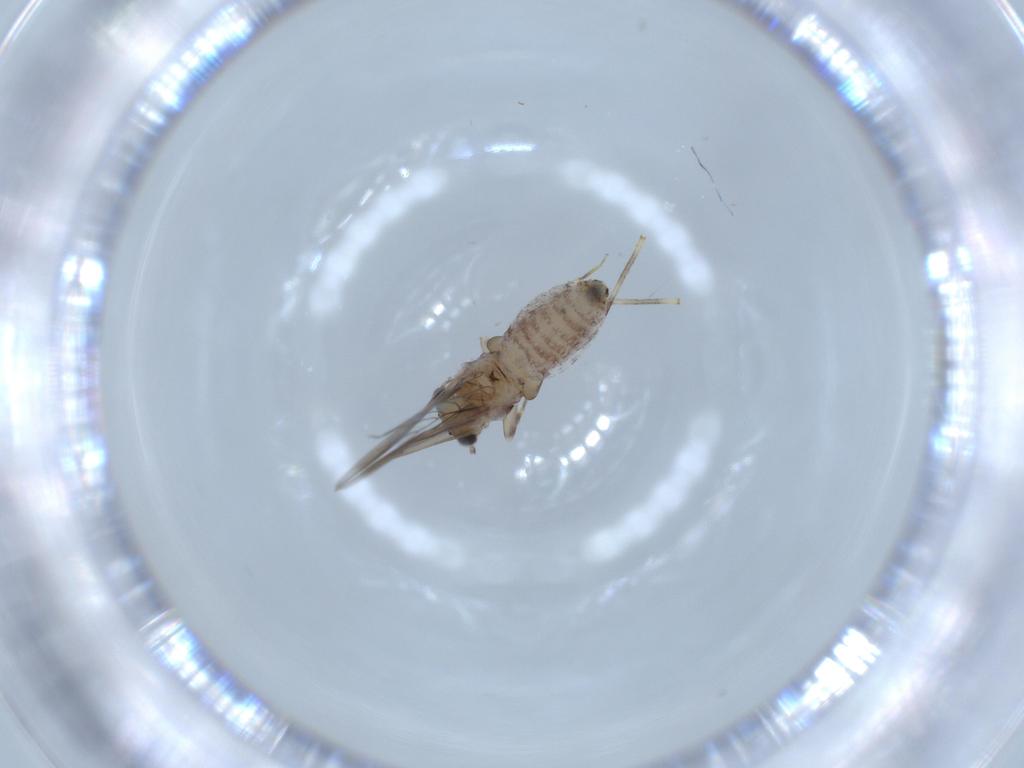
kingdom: Animalia
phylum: Arthropoda
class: Insecta
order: Psocodea
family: Lepidopsocidae
